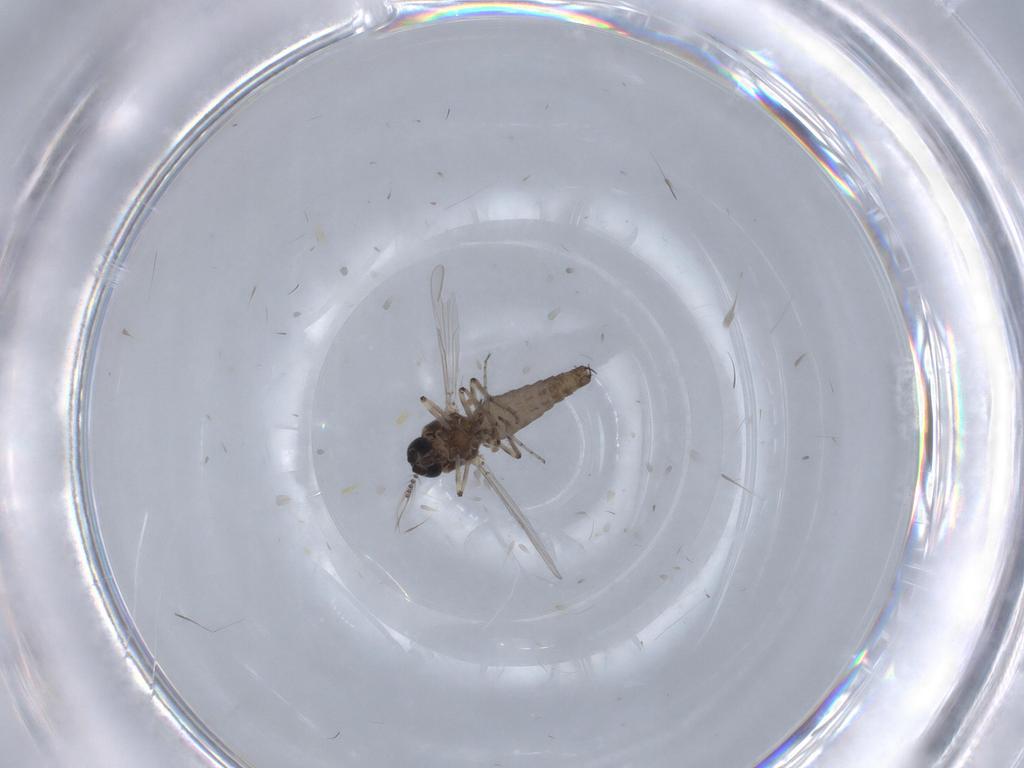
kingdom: Animalia
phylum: Arthropoda
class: Insecta
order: Diptera
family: Ceratopogonidae
